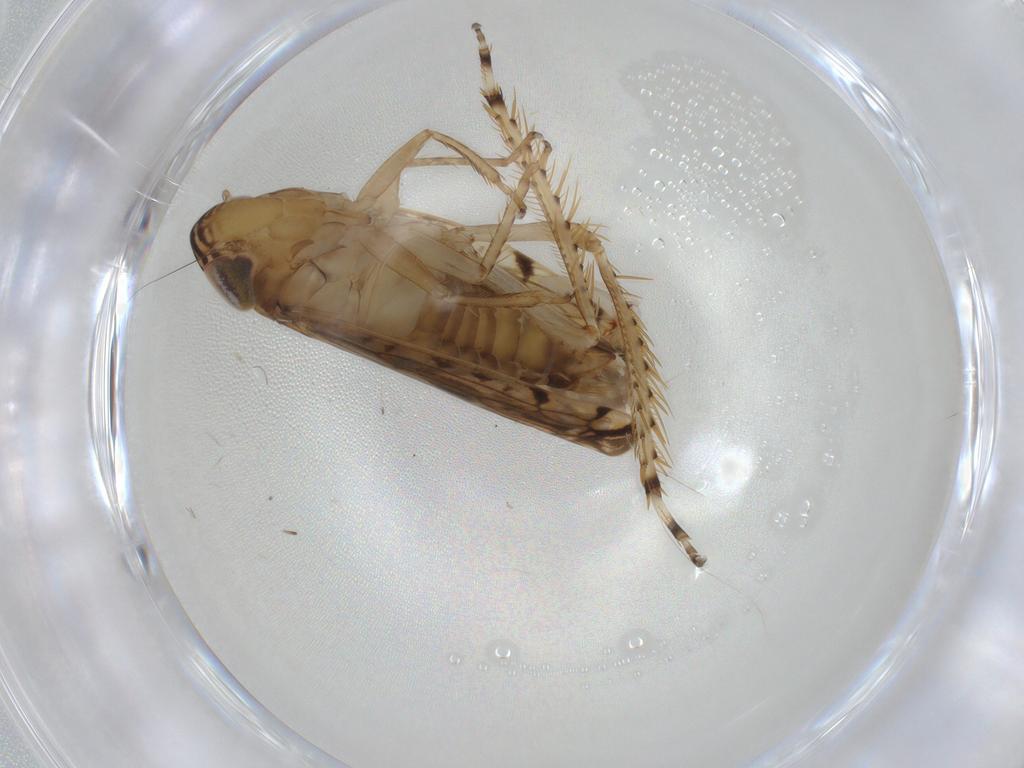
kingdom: Animalia
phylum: Arthropoda
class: Insecta
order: Hemiptera
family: Cicadellidae
